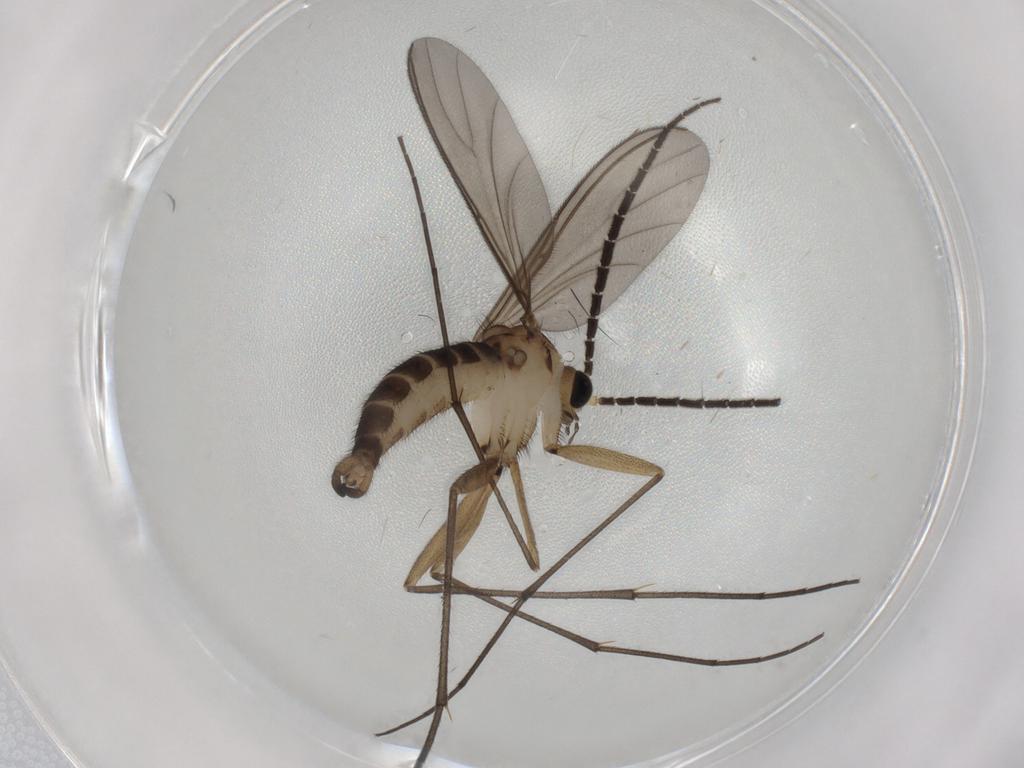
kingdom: Animalia
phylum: Arthropoda
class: Insecta
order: Diptera
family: Sciaridae
